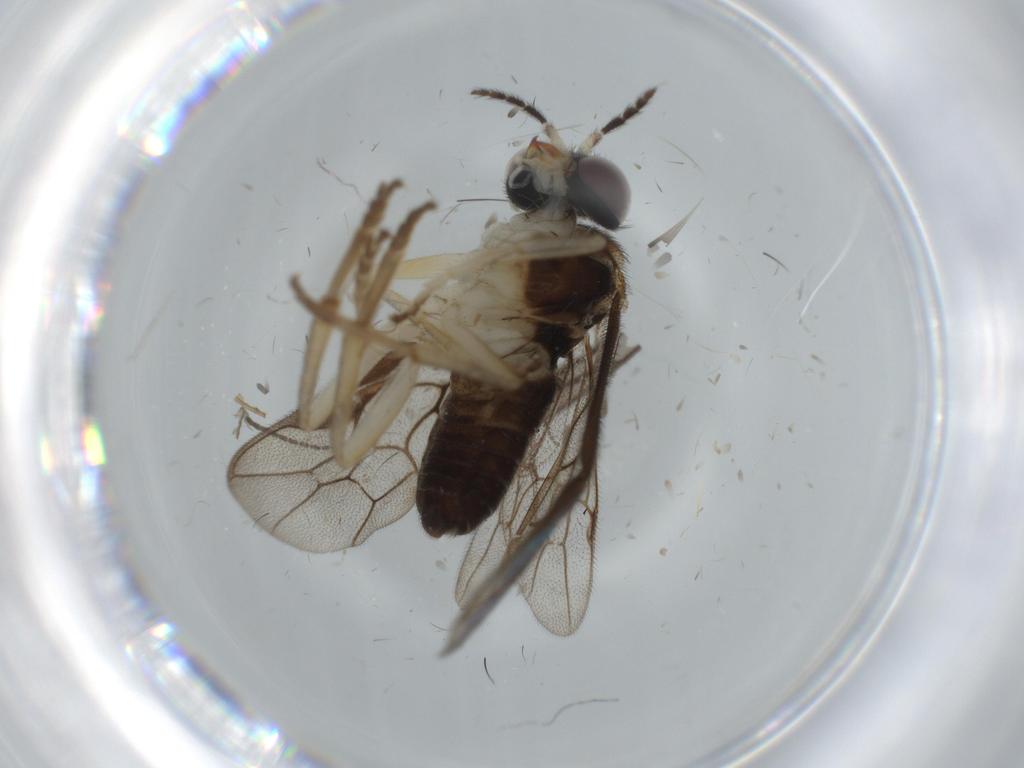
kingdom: Animalia
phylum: Arthropoda
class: Insecta
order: Hymenoptera
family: Pergidae
